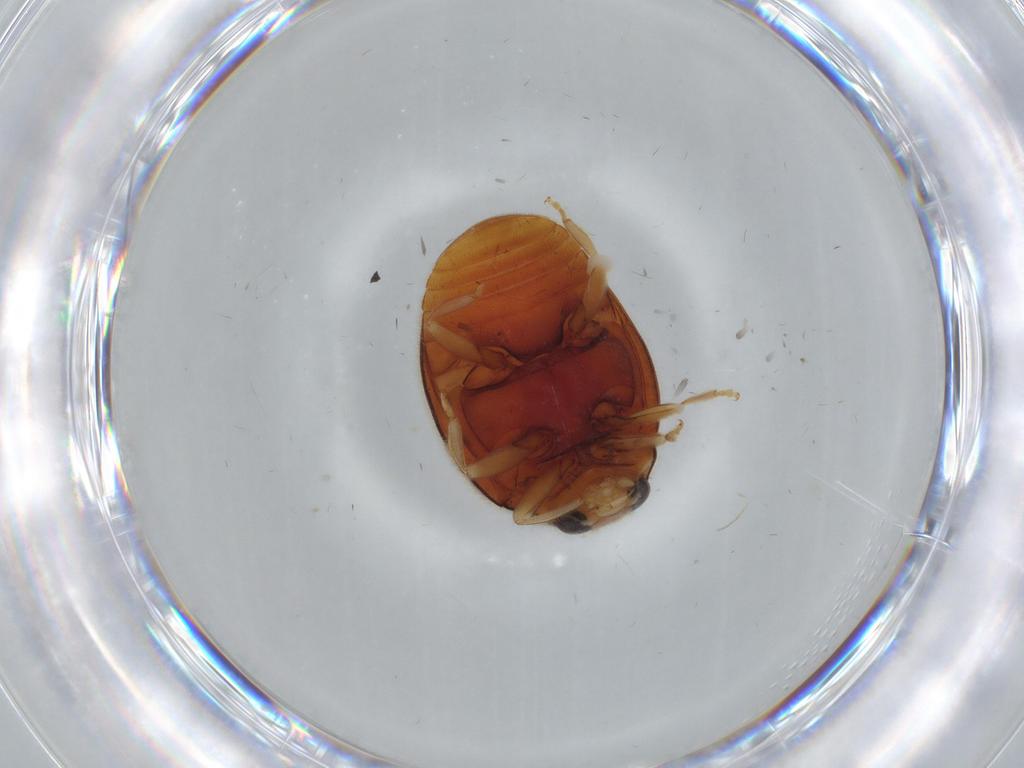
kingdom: Animalia
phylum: Arthropoda
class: Insecta
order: Coleoptera
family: Coccinellidae
